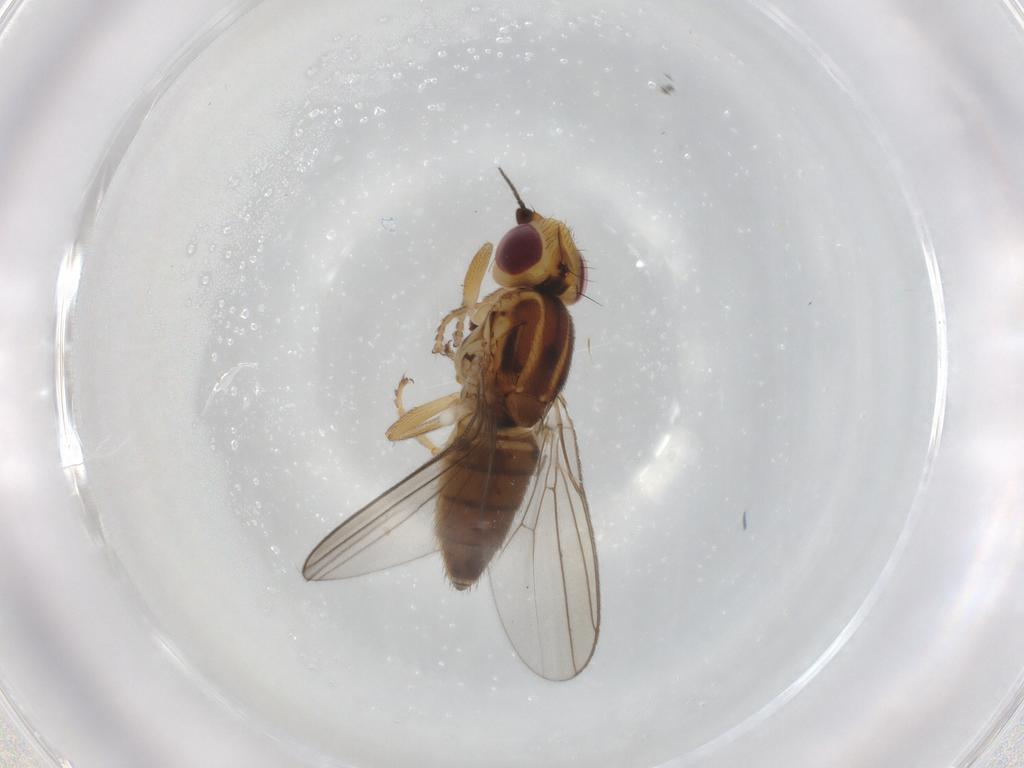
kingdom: Animalia
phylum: Arthropoda
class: Insecta
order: Diptera
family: Chloropidae
